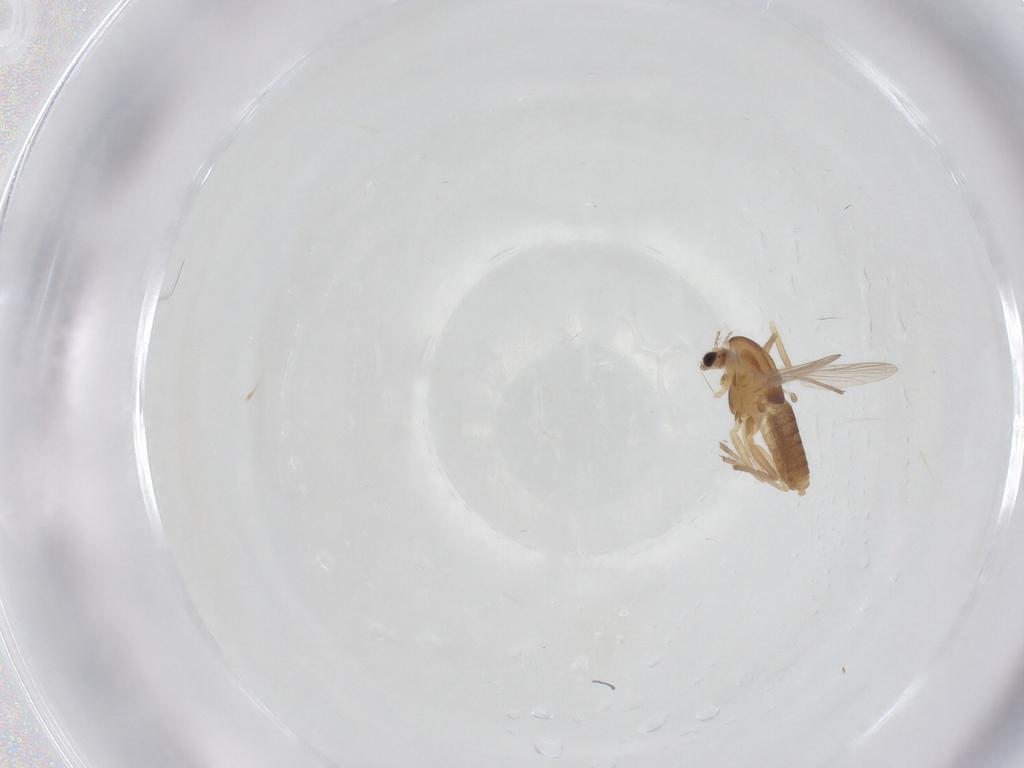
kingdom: Animalia
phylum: Arthropoda
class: Insecta
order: Diptera
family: Chironomidae
